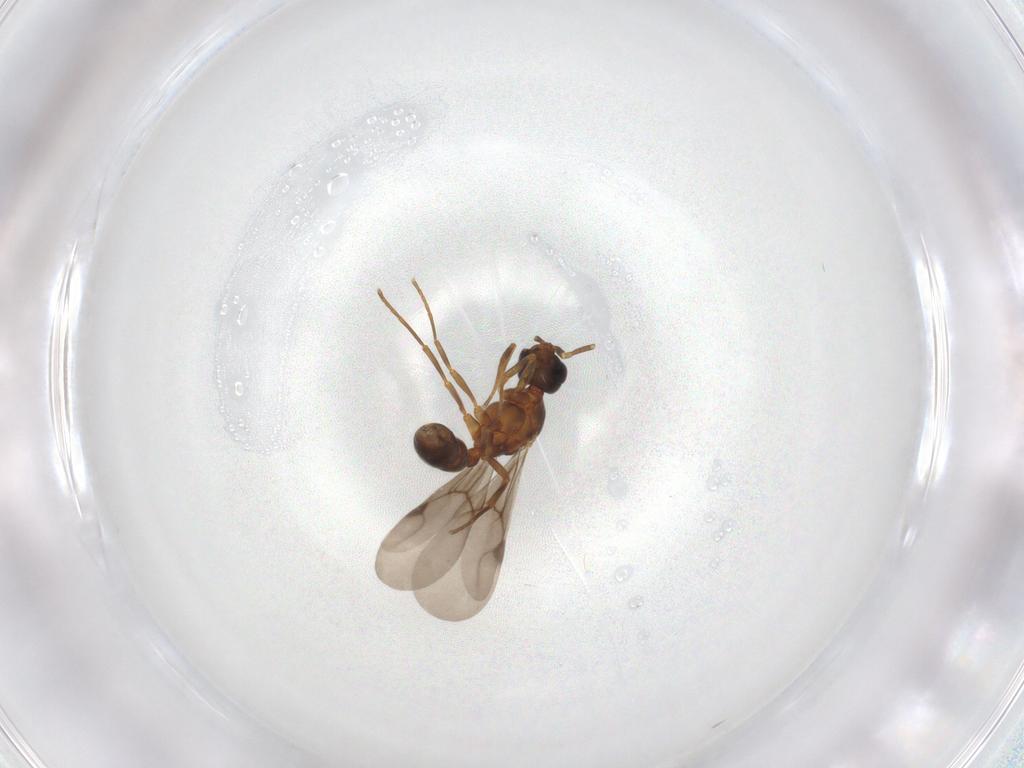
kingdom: Animalia
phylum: Arthropoda
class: Insecta
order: Hymenoptera
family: Formicidae
